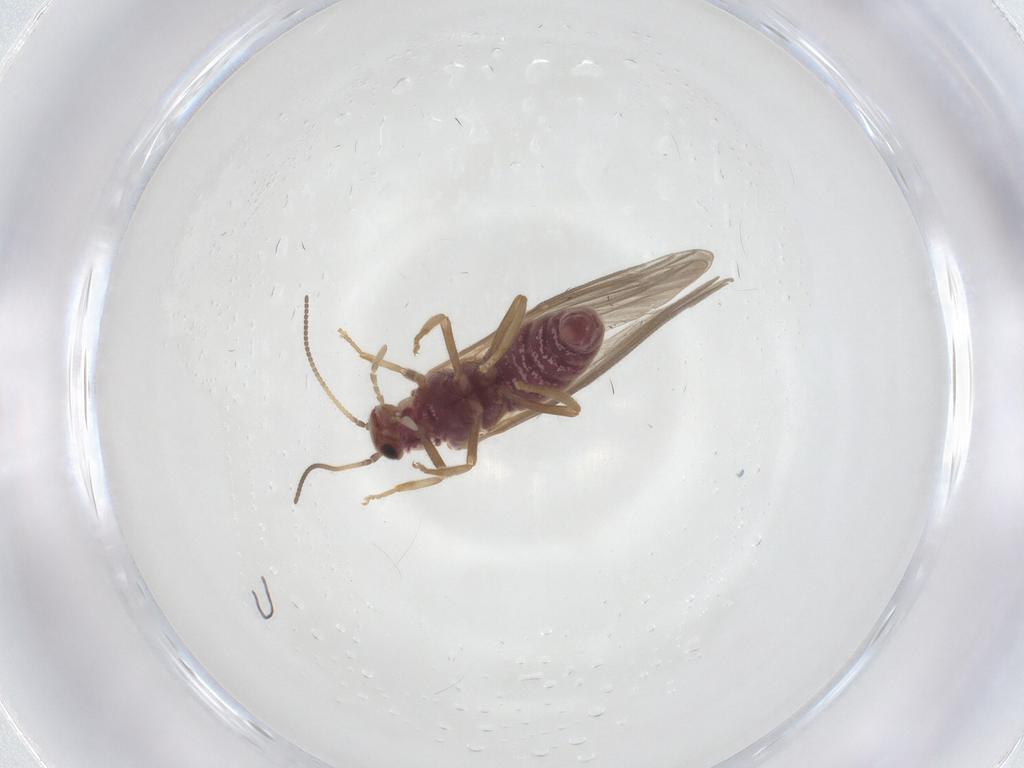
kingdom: Animalia
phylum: Arthropoda
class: Insecta
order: Neuroptera
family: Coniopterygidae
